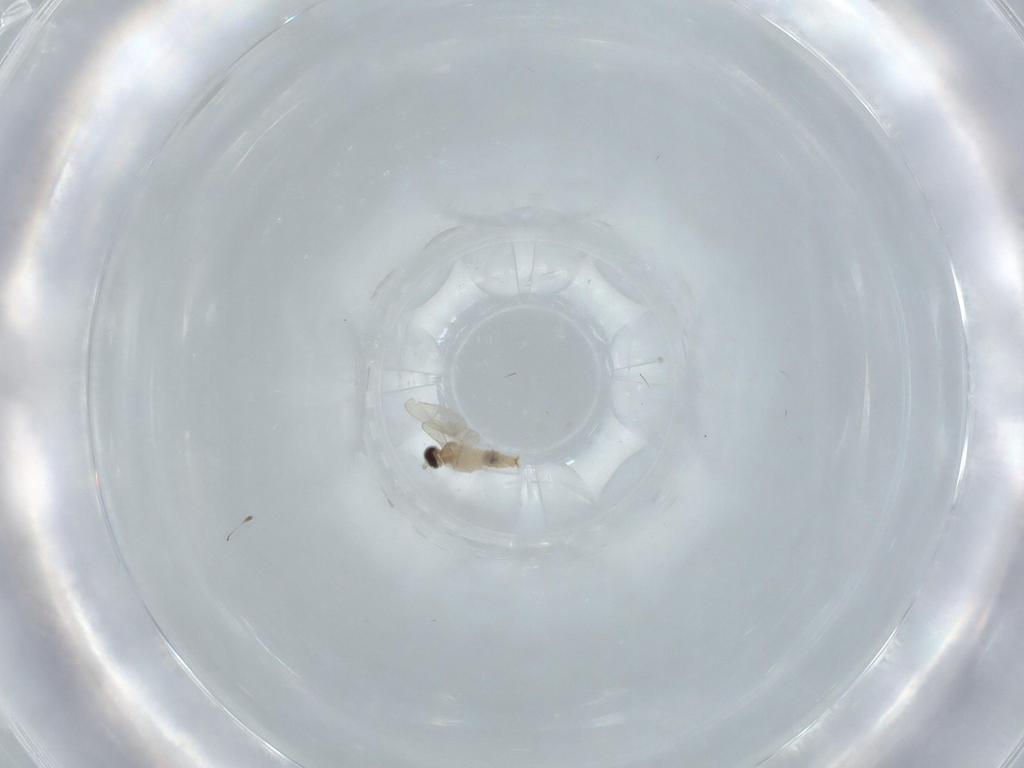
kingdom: Animalia
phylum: Arthropoda
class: Insecta
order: Diptera
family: Cecidomyiidae
